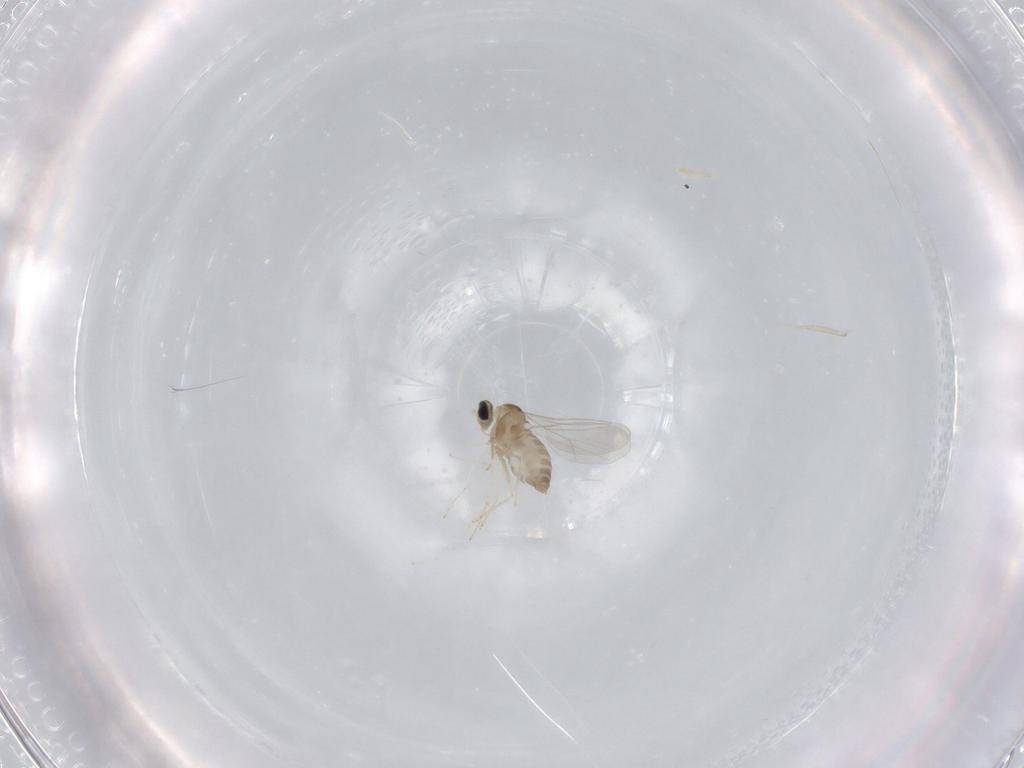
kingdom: Animalia
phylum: Arthropoda
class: Insecta
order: Diptera
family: Cecidomyiidae
